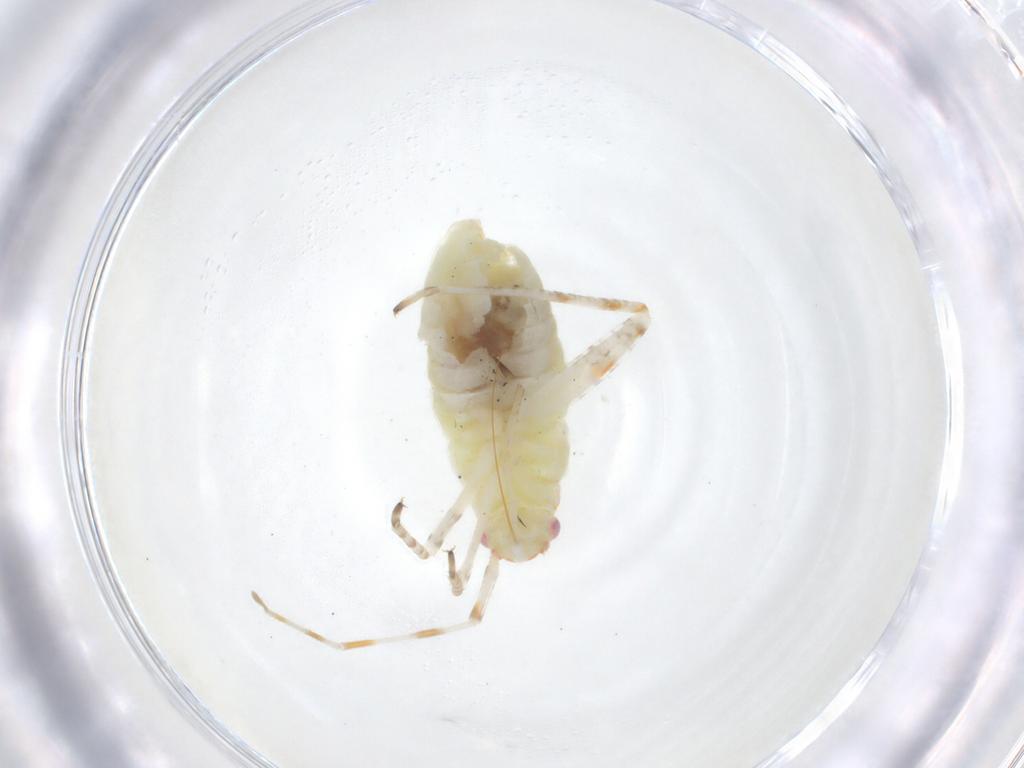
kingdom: Animalia
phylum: Arthropoda
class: Insecta
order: Hemiptera
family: Miridae
